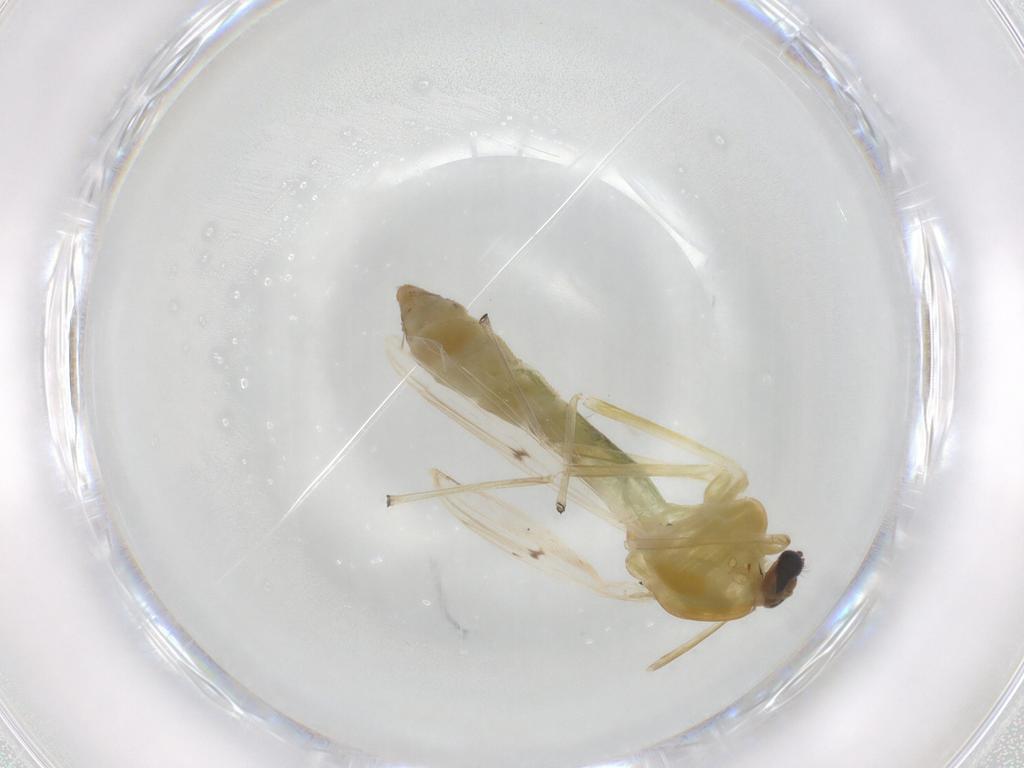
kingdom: Animalia
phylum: Arthropoda
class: Insecta
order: Diptera
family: Chironomidae
